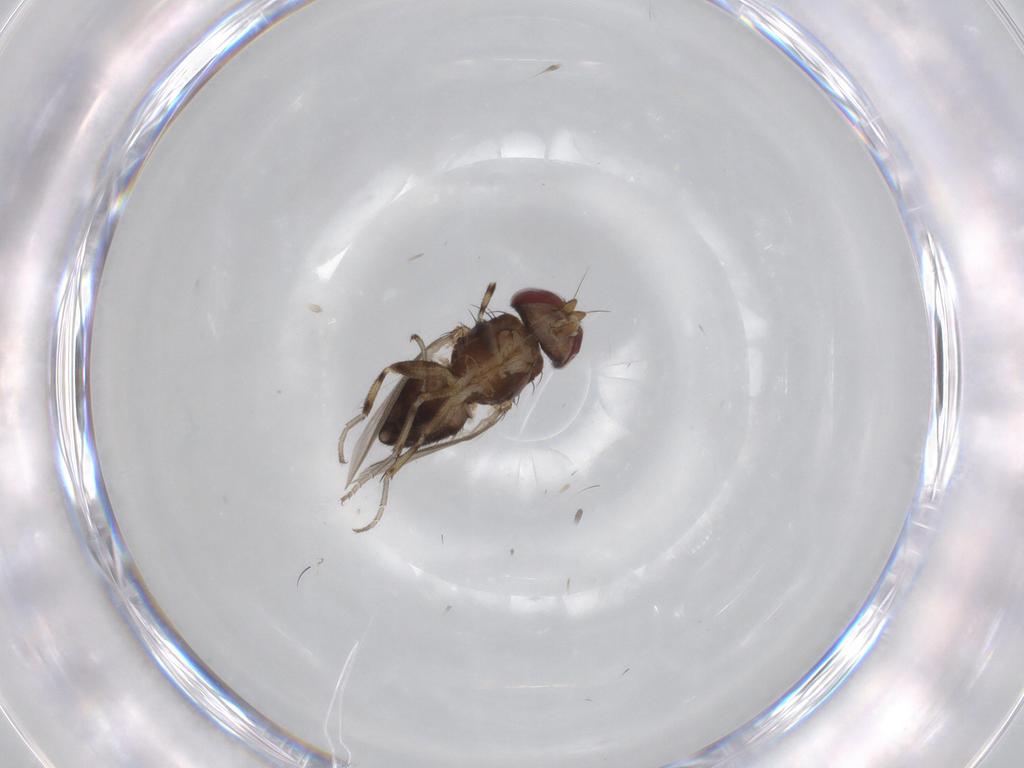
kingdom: Animalia
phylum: Arthropoda
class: Insecta
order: Diptera
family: Heleomyzidae
